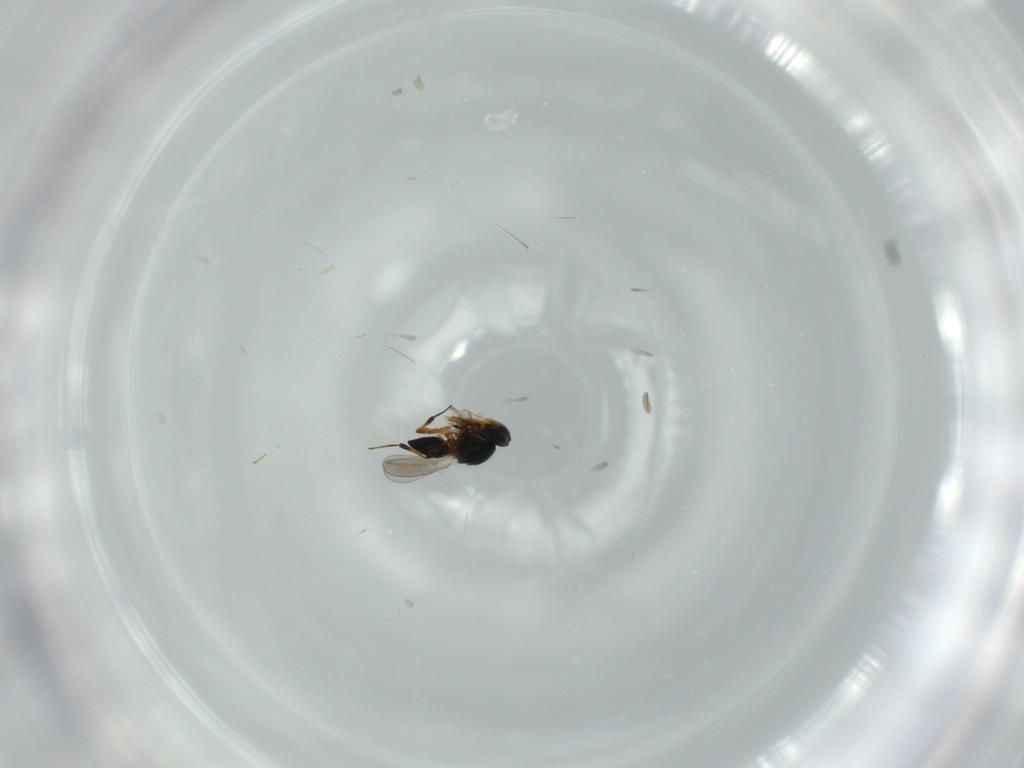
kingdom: Animalia
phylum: Arthropoda
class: Insecta
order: Hymenoptera
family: Platygastridae
